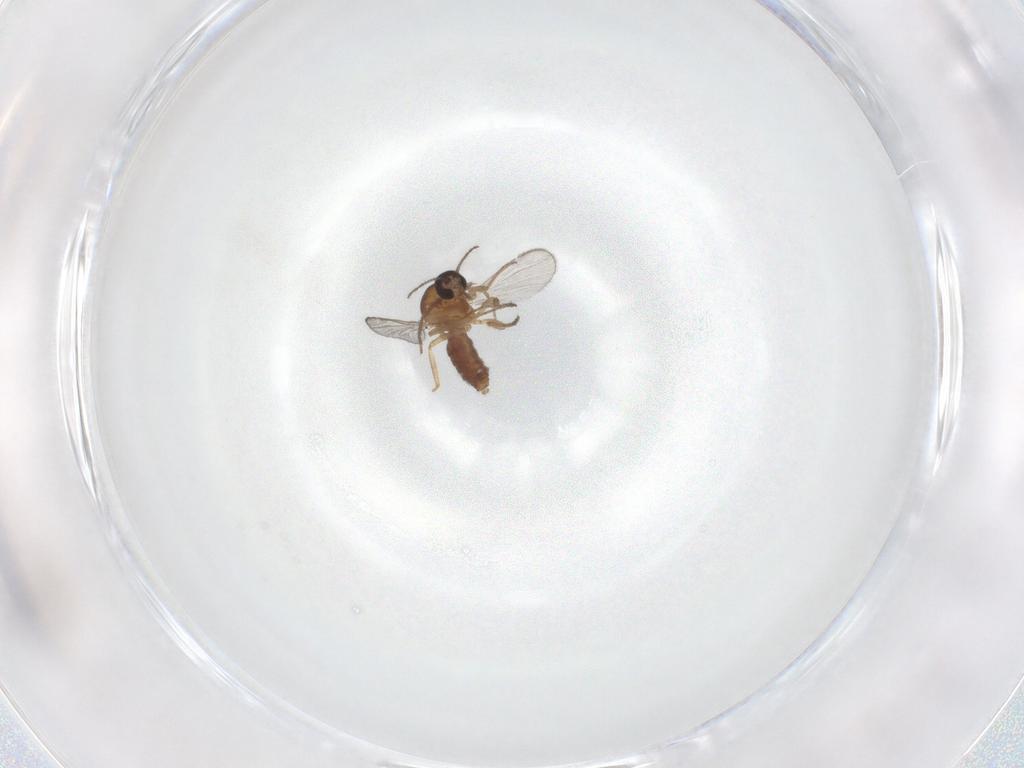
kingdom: Animalia
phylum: Arthropoda
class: Insecta
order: Diptera
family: Chironomidae
